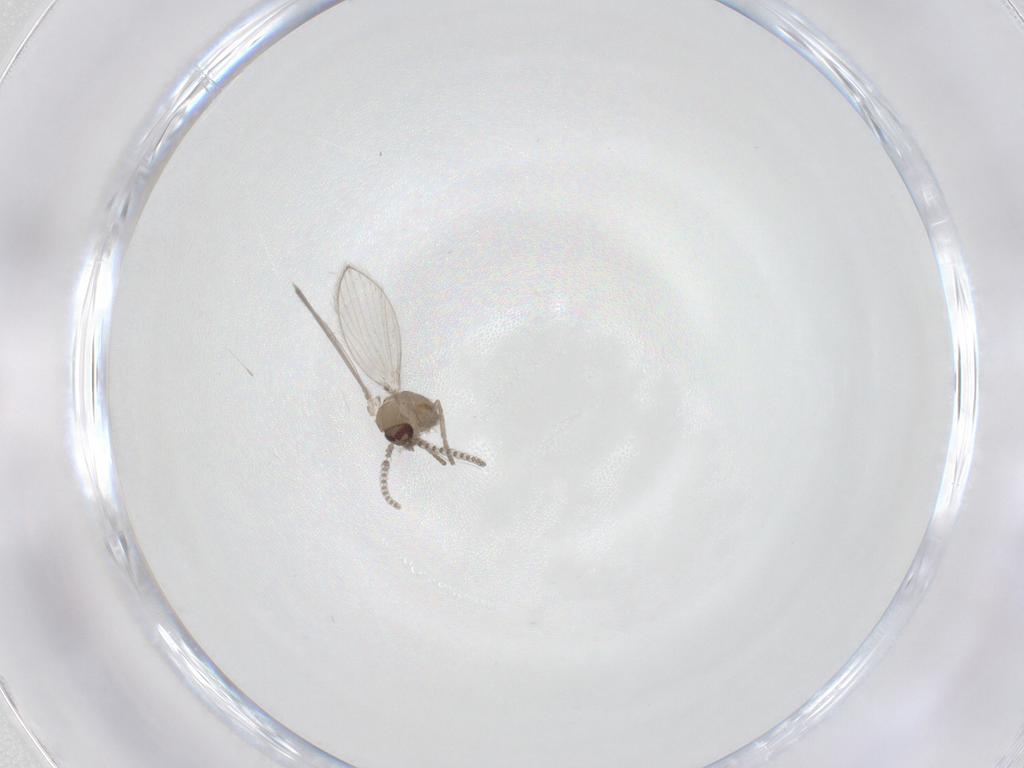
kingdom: Animalia
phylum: Arthropoda
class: Insecta
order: Diptera
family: Psychodidae
